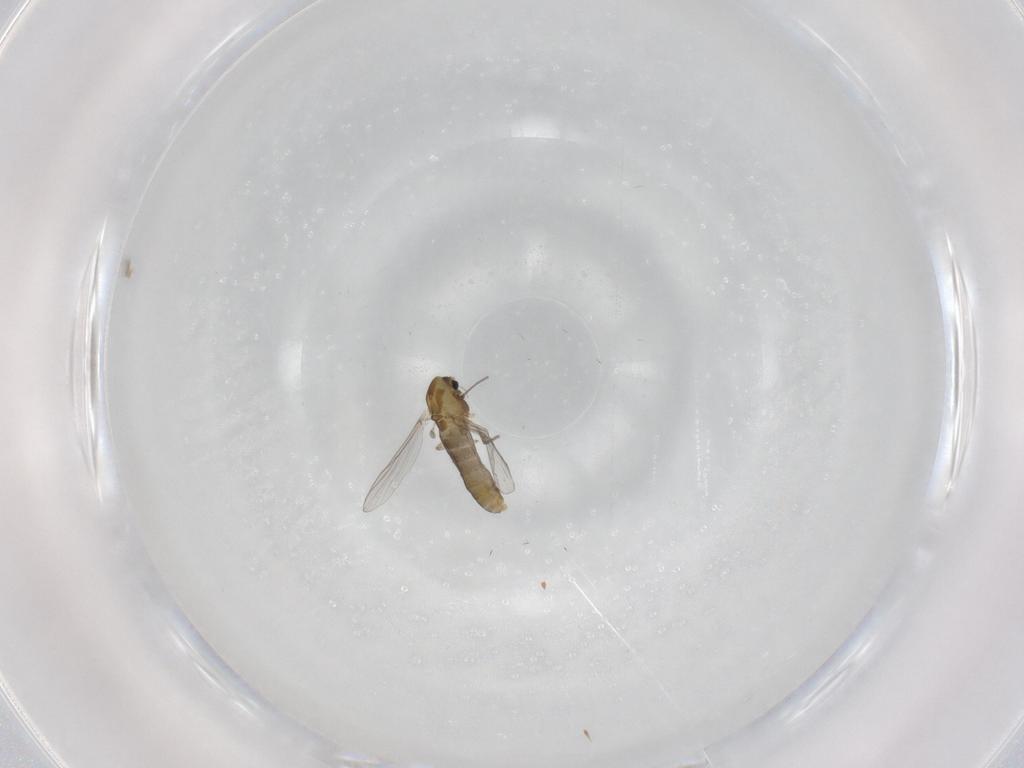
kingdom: Animalia
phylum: Arthropoda
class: Insecta
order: Diptera
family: Chironomidae
